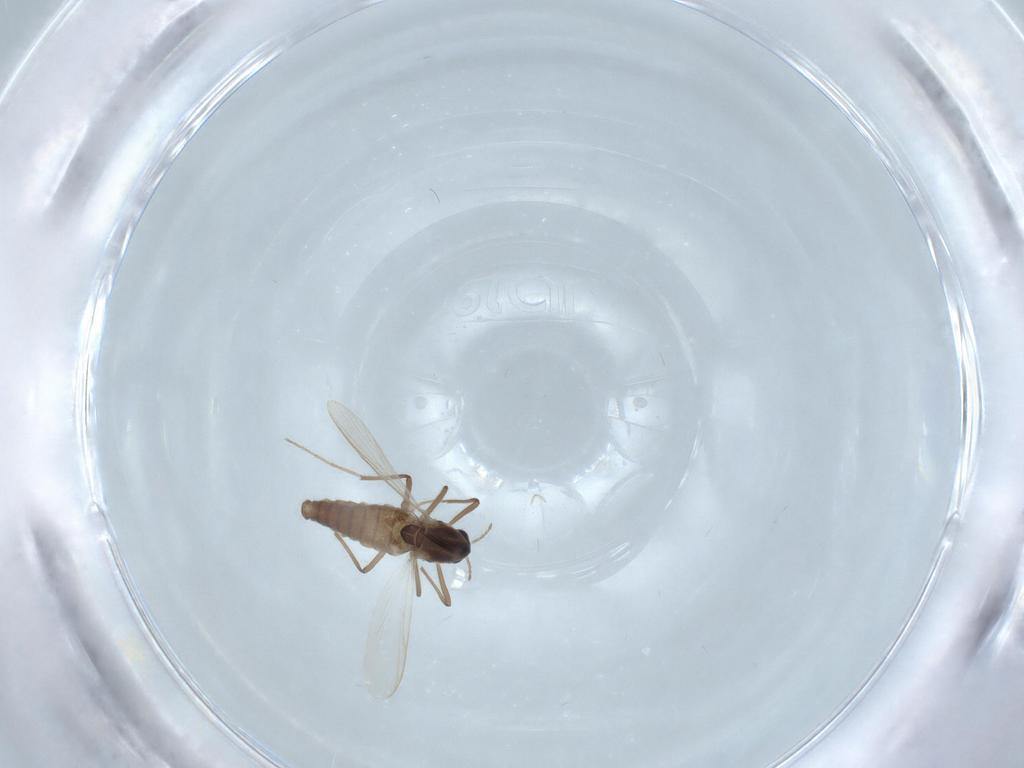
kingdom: Animalia
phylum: Arthropoda
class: Insecta
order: Diptera
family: Chironomidae
